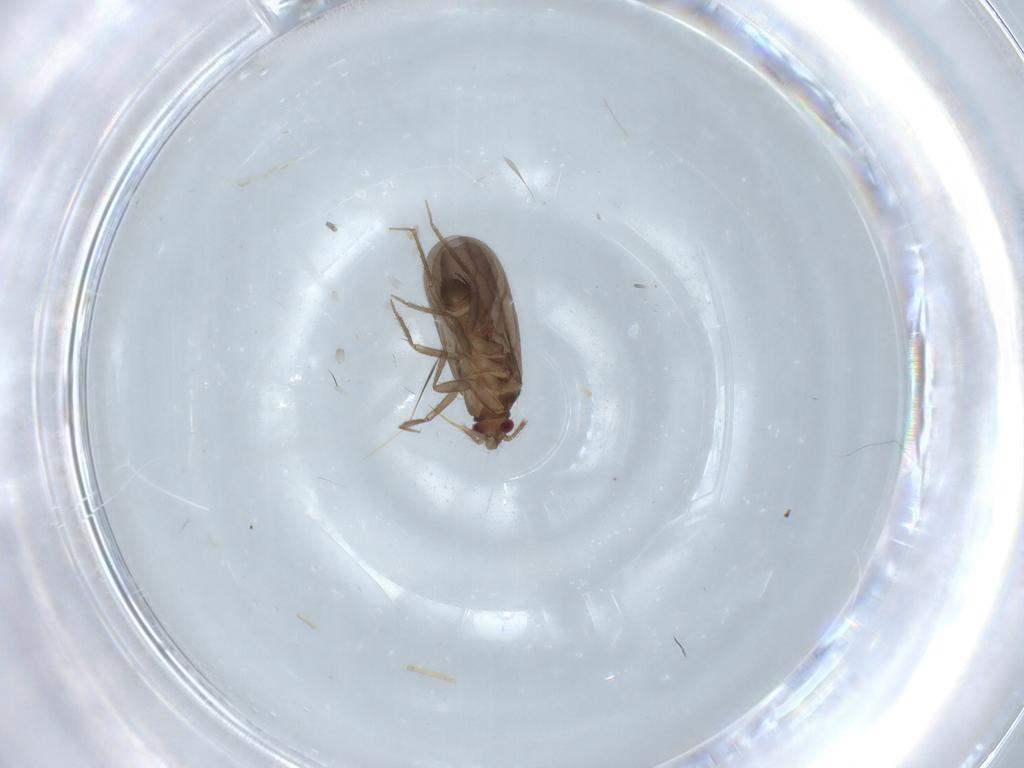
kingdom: Animalia
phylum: Arthropoda
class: Insecta
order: Hemiptera
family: Ceratocombidae
